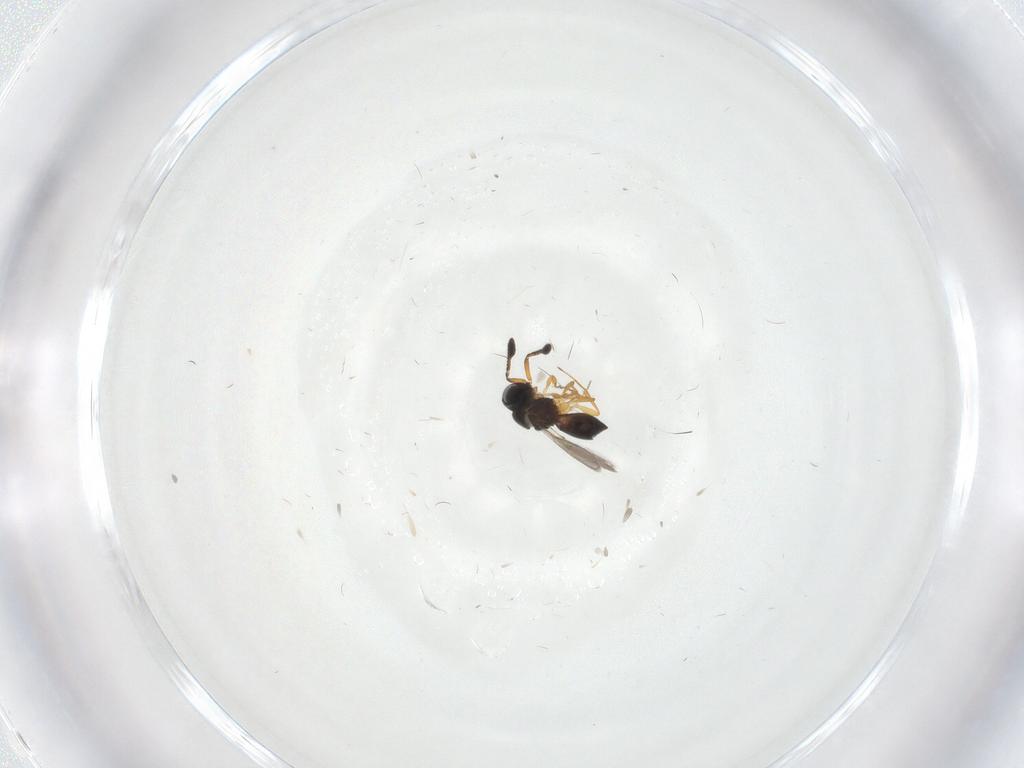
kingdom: Animalia
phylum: Arthropoda
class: Insecta
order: Hymenoptera
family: Scelionidae
